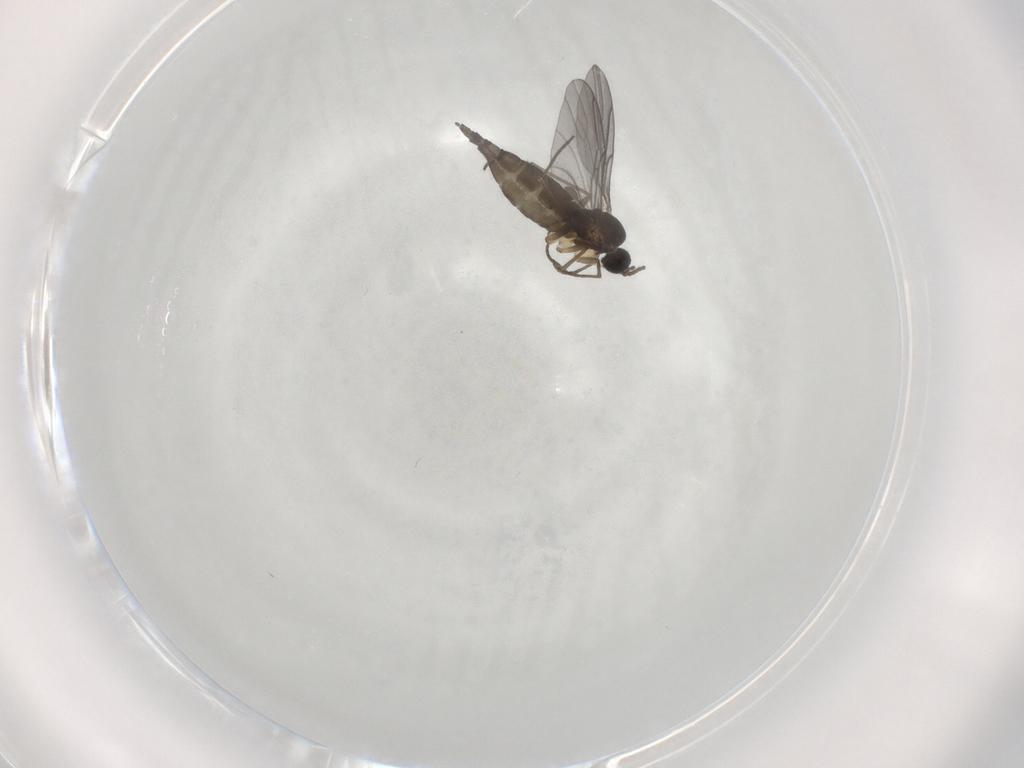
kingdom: Animalia
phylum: Arthropoda
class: Insecta
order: Diptera
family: Sciaridae
